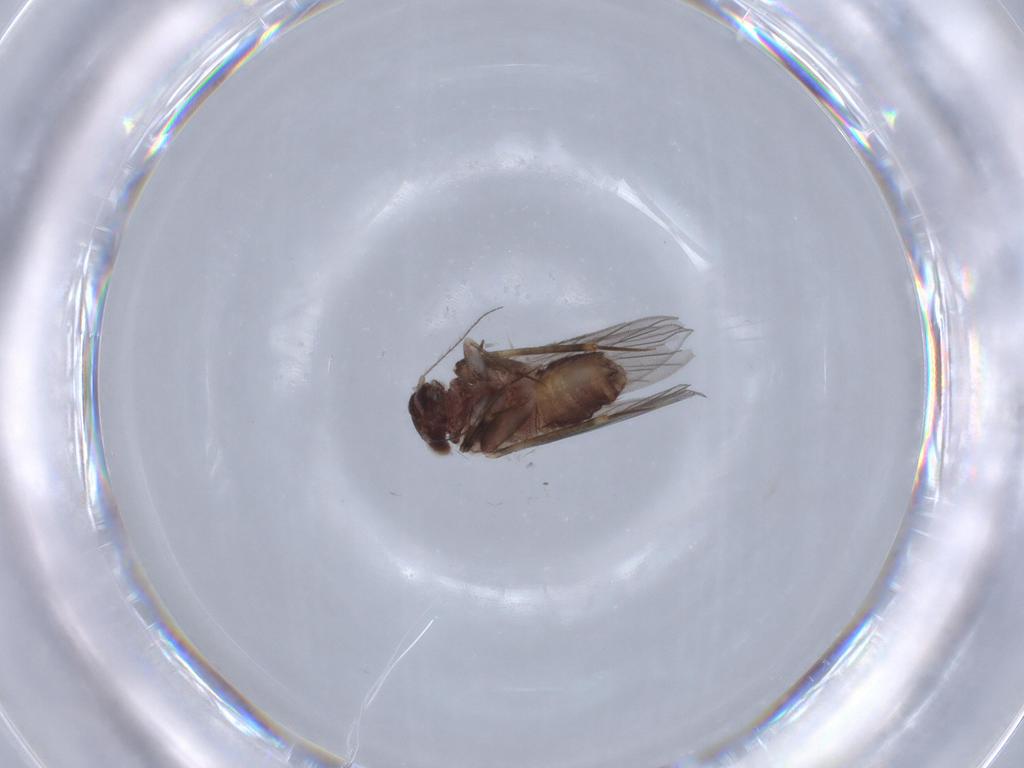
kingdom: Animalia
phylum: Arthropoda
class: Insecta
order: Psocodea
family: Lepidopsocidae
